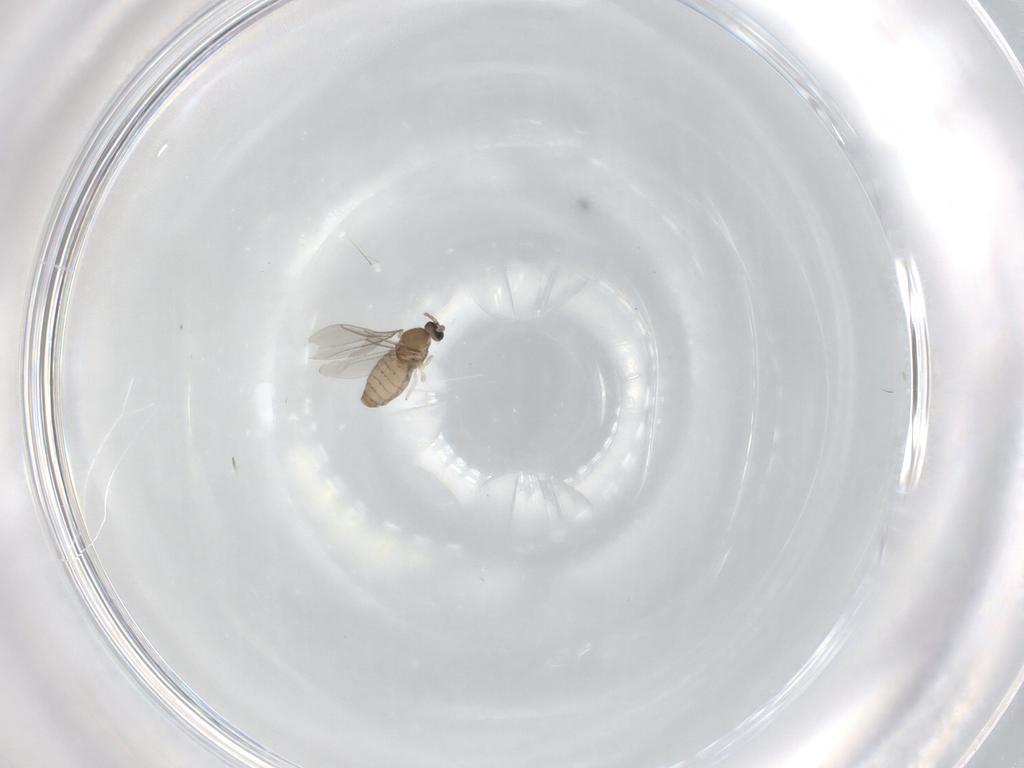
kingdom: Animalia
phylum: Arthropoda
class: Insecta
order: Diptera
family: Cecidomyiidae
